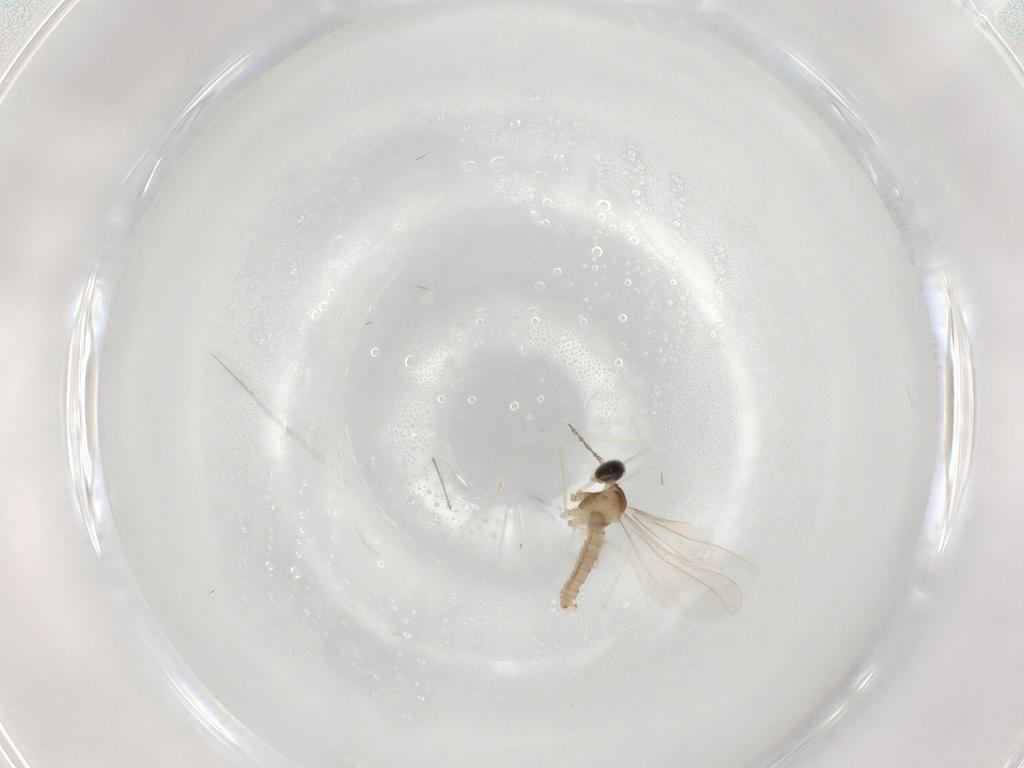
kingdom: Animalia
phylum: Arthropoda
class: Insecta
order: Diptera
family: Cecidomyiidae
